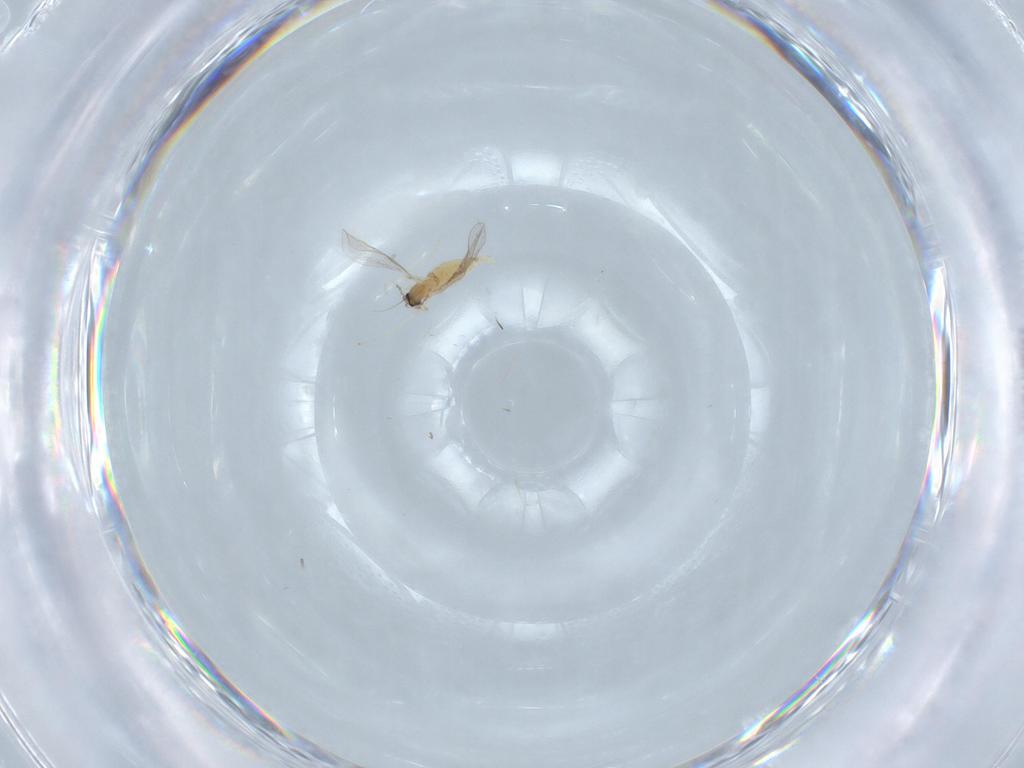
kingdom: Animalia
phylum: Arthropoda
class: Insecta
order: Diptera
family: Cecidomyiidae
